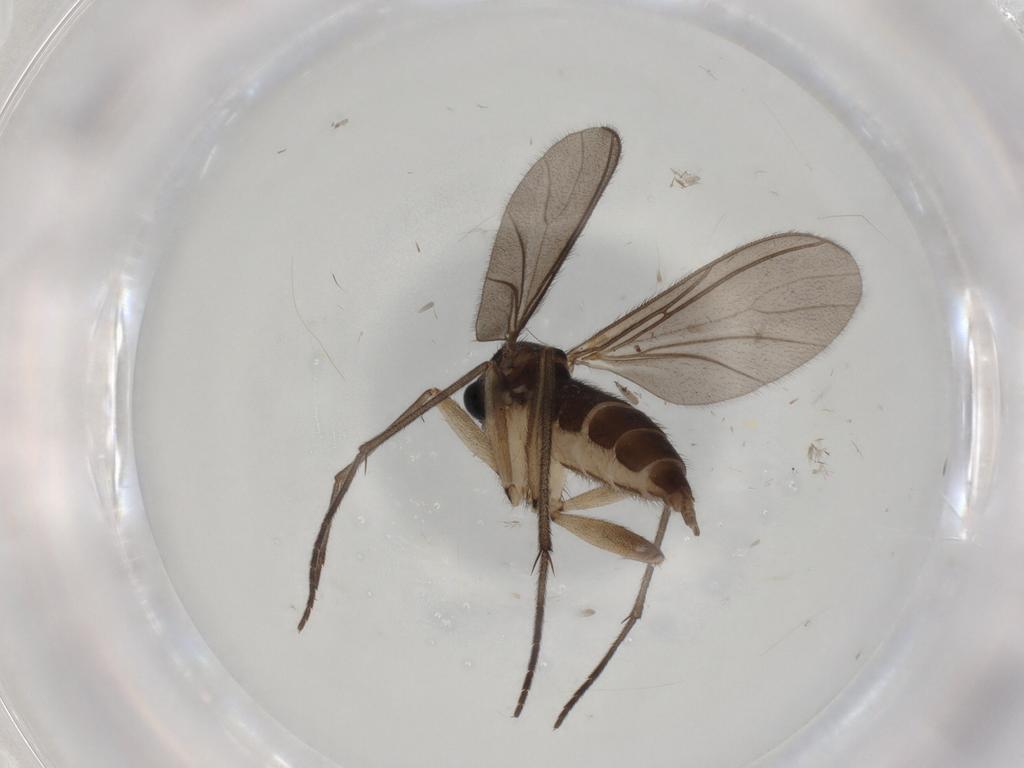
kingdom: Animalia
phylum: Arthropoda
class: Insecta
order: Diptera
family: Sciaridae
